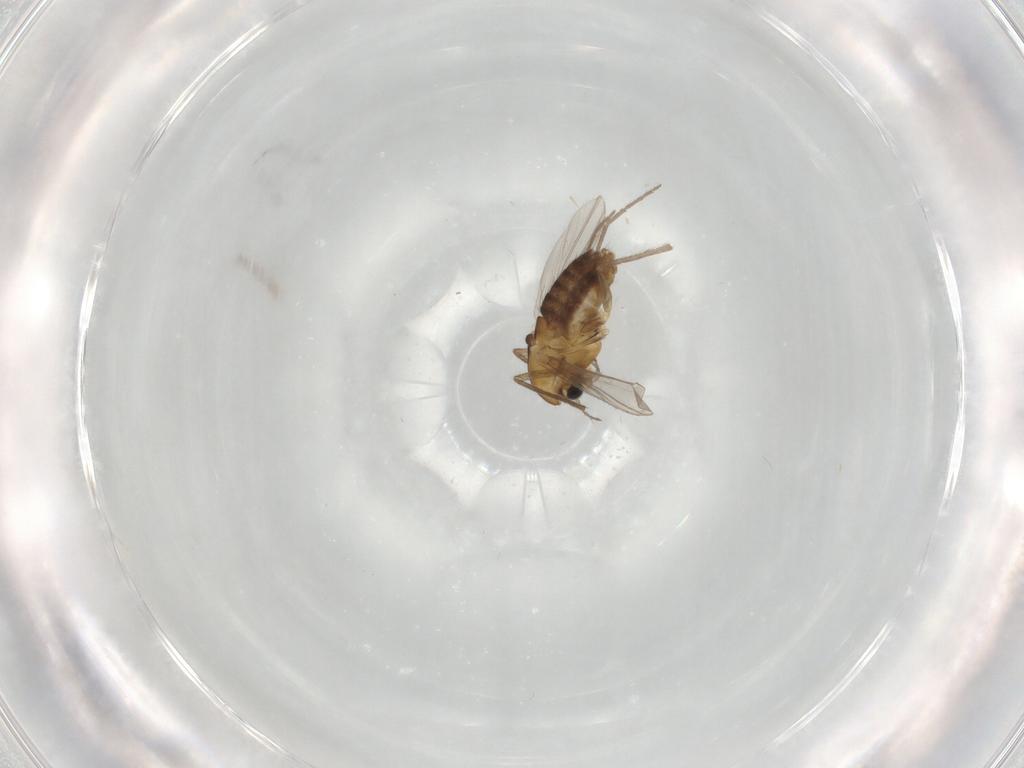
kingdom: Animalia
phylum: Arthropoda
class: Insecta
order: Diptera
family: Chironomidae
